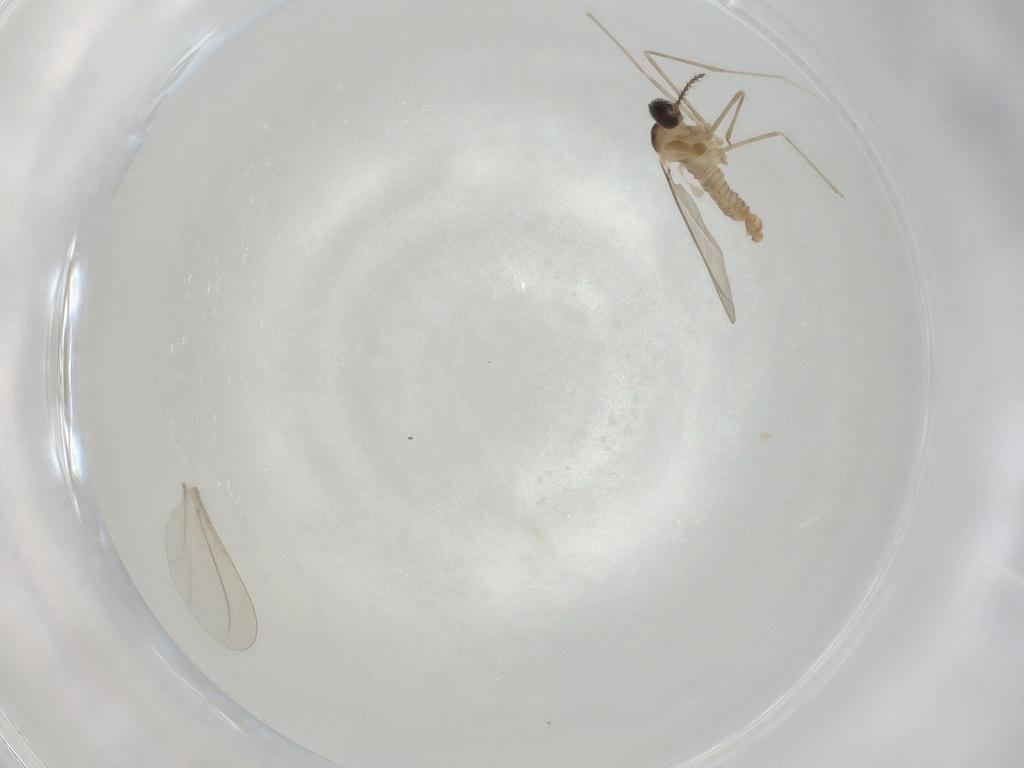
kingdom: Animalia
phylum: Arthropoda
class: Insecta
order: Diptera
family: Cecidomyiidae
